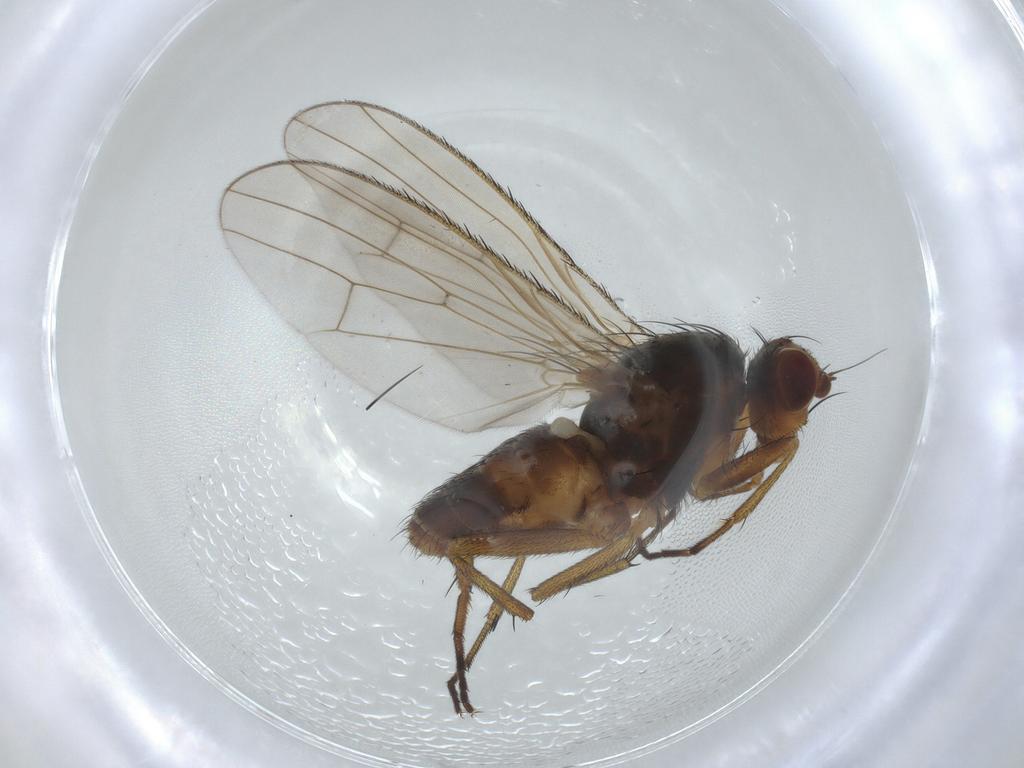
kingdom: Animalia
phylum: Arthropoda
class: Insecta
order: Diptera
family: Heleomyzidae
